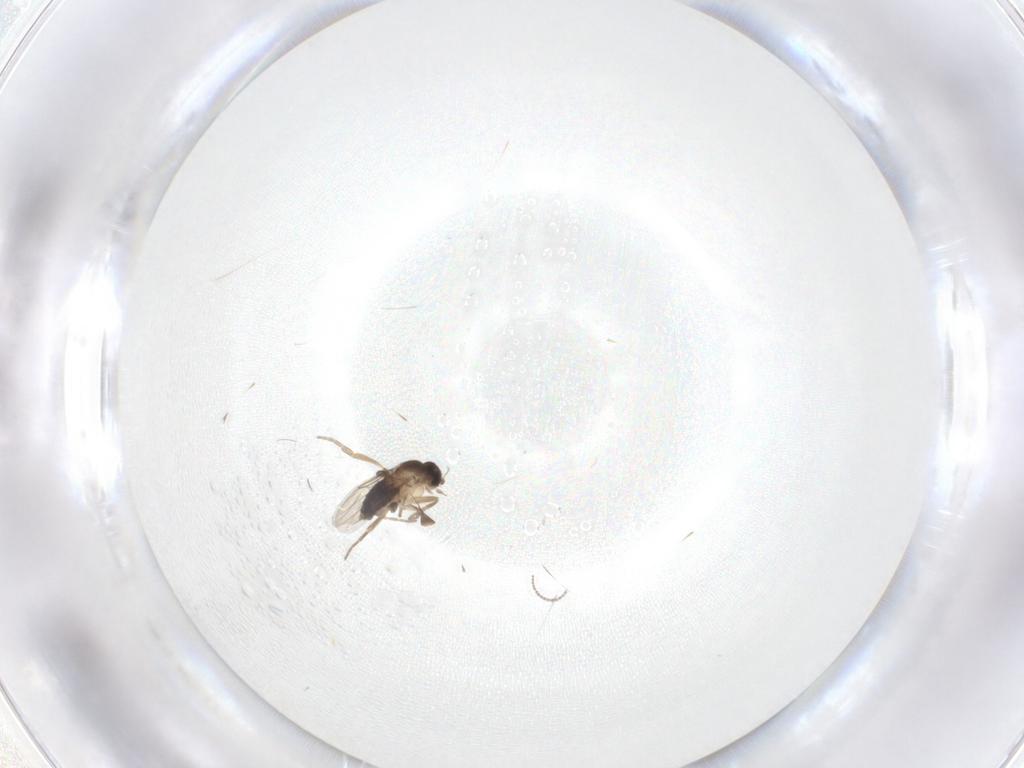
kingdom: Animalia
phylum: Arthropoda
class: Insecta
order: Diptera
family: Phoridae
